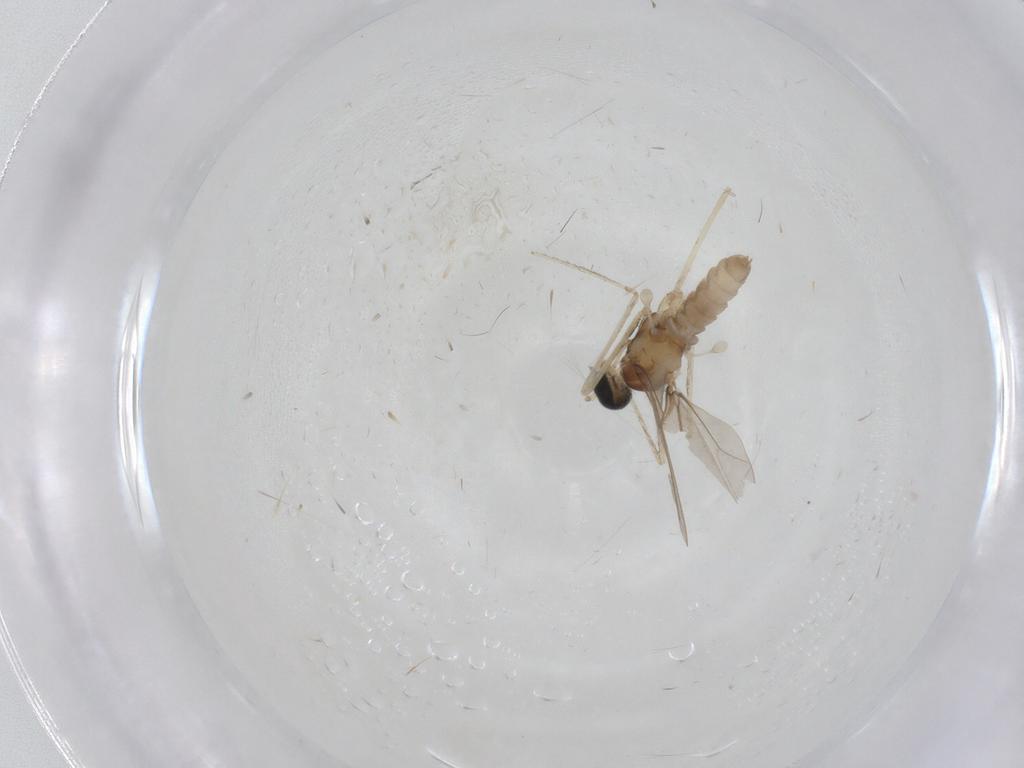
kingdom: Animalia
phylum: Arthropoda
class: Insecta
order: Diptera
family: Cecidomyiidae
